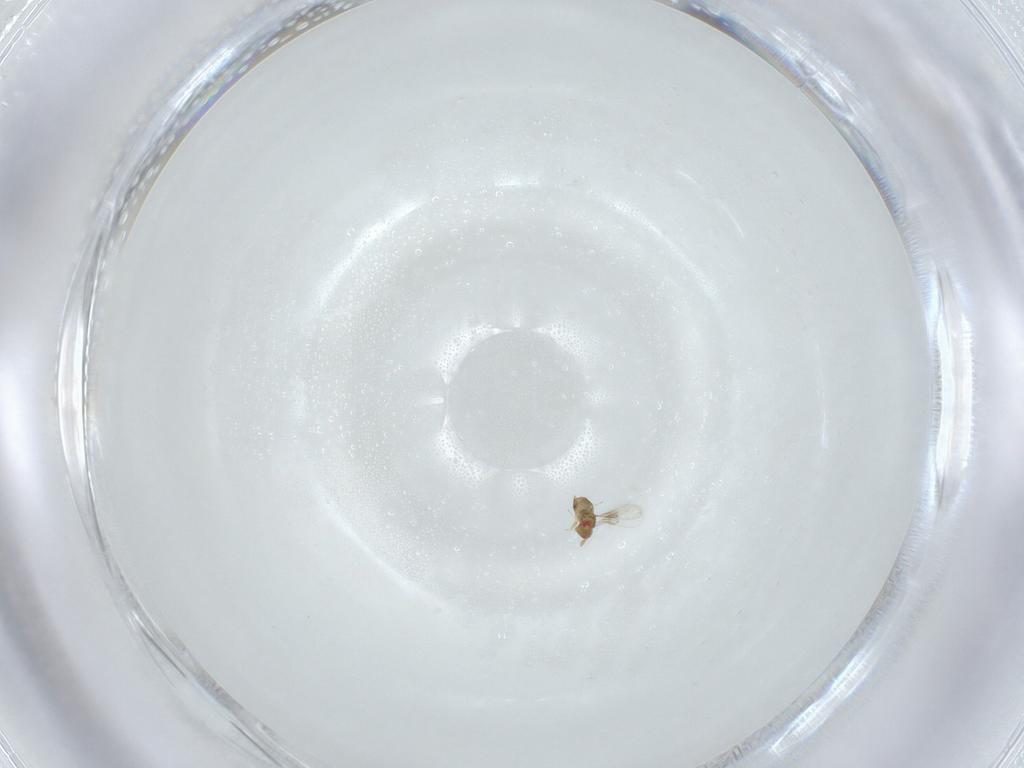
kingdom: Animalia
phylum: Arthropoda
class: Insecta
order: Hymenoptera
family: Trichogrammatidae
